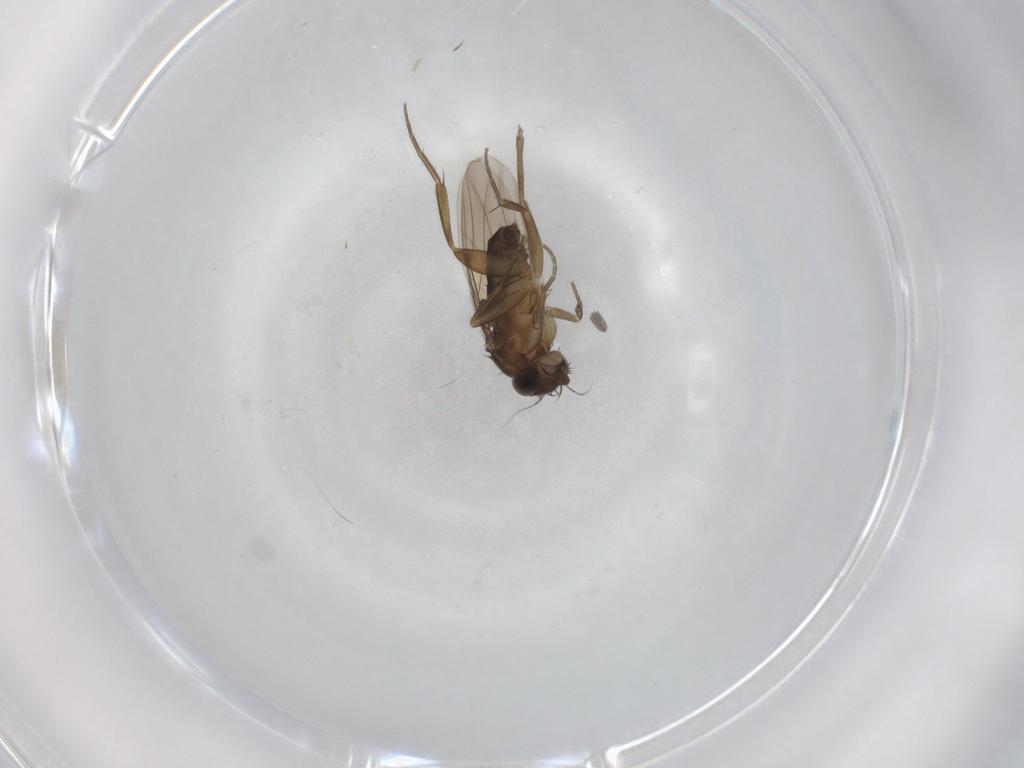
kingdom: Animalia
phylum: Arthropoda
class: Insecta
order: Diptera
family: Phoridae
